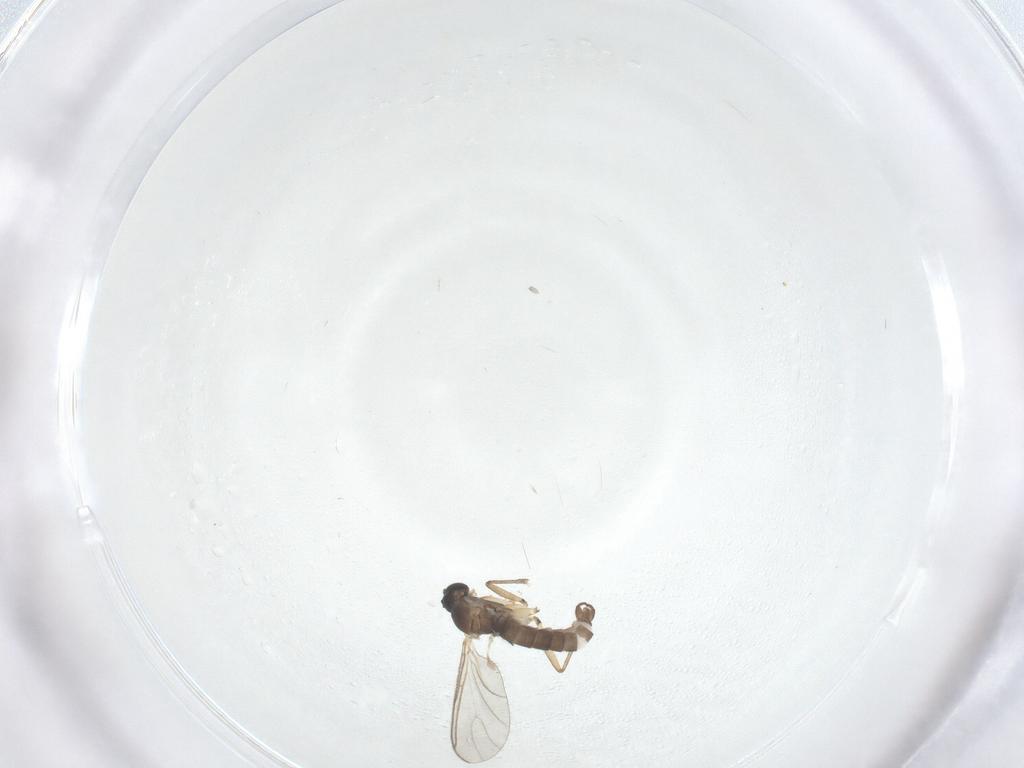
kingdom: Animalia
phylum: Arthropoda
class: Insecta
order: Diptera
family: Sciaridae
